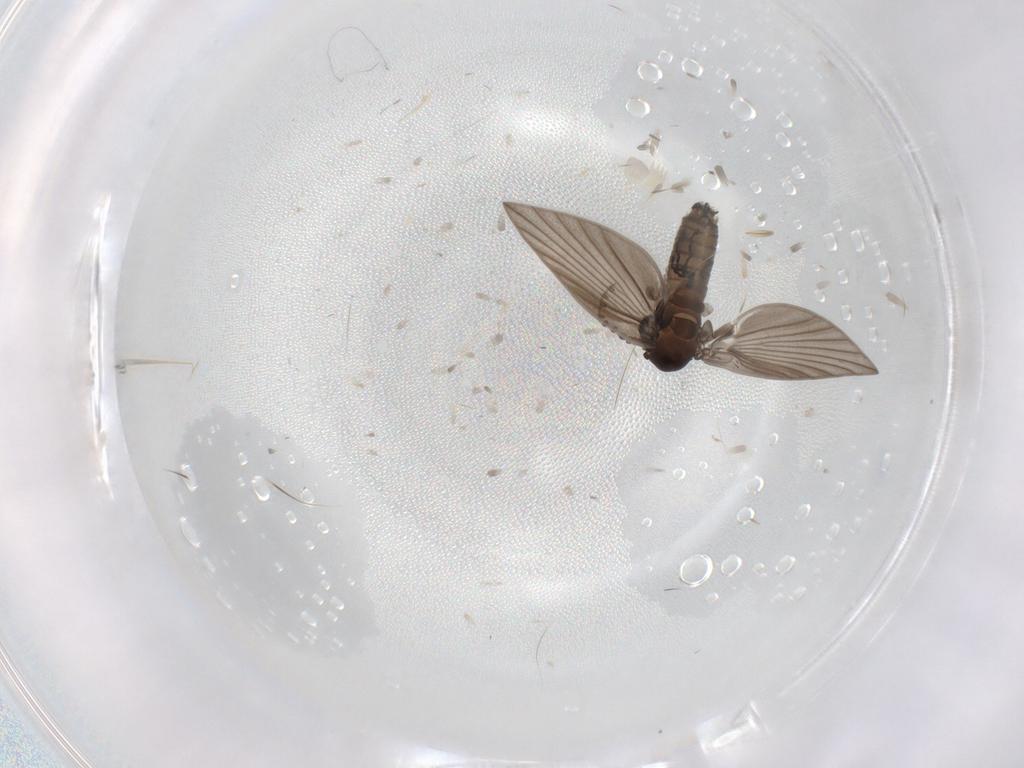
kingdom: Animalia
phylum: Arthropoda
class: Insecta
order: Diptera
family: Psychodidae
